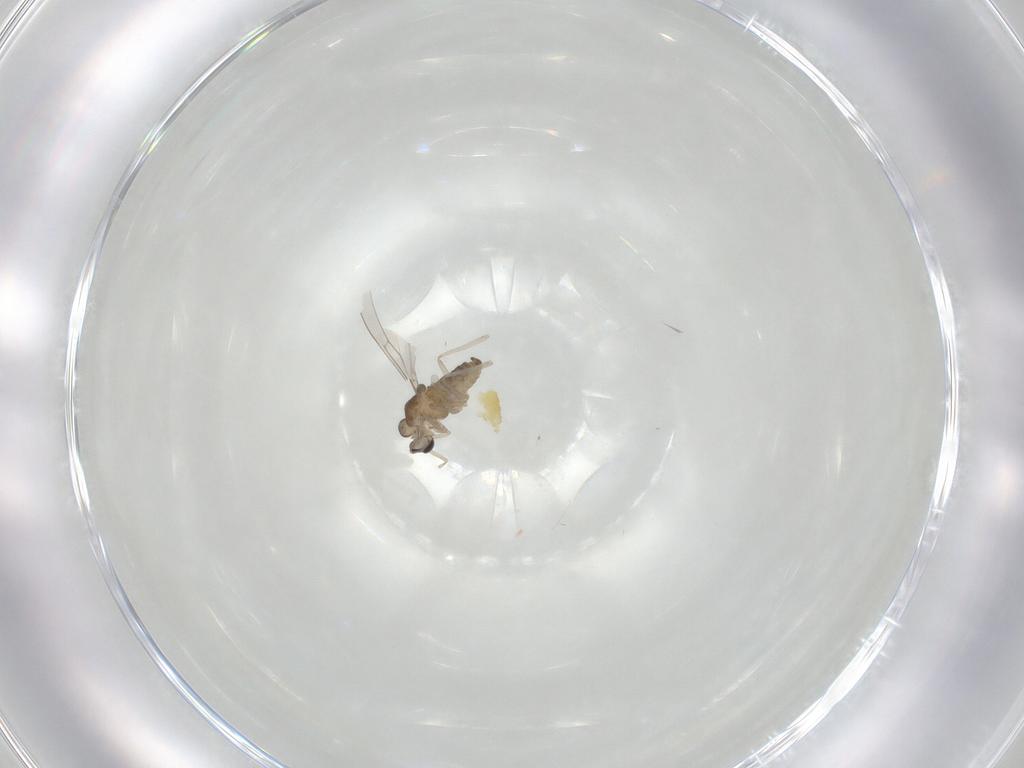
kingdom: Animalia
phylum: Arthropoda
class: Insecta
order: Diptera
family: Cecidomyiidae
